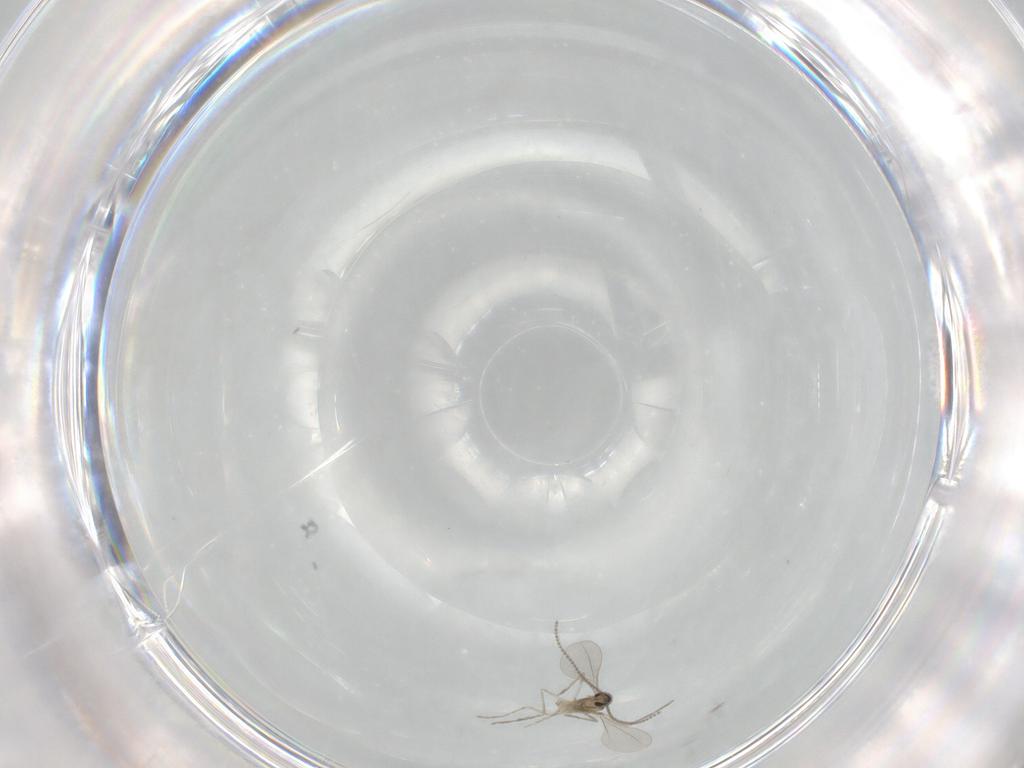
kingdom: Animalia
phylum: Arthropoda
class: Insecta
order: Diptera
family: Cecidomyiidae
